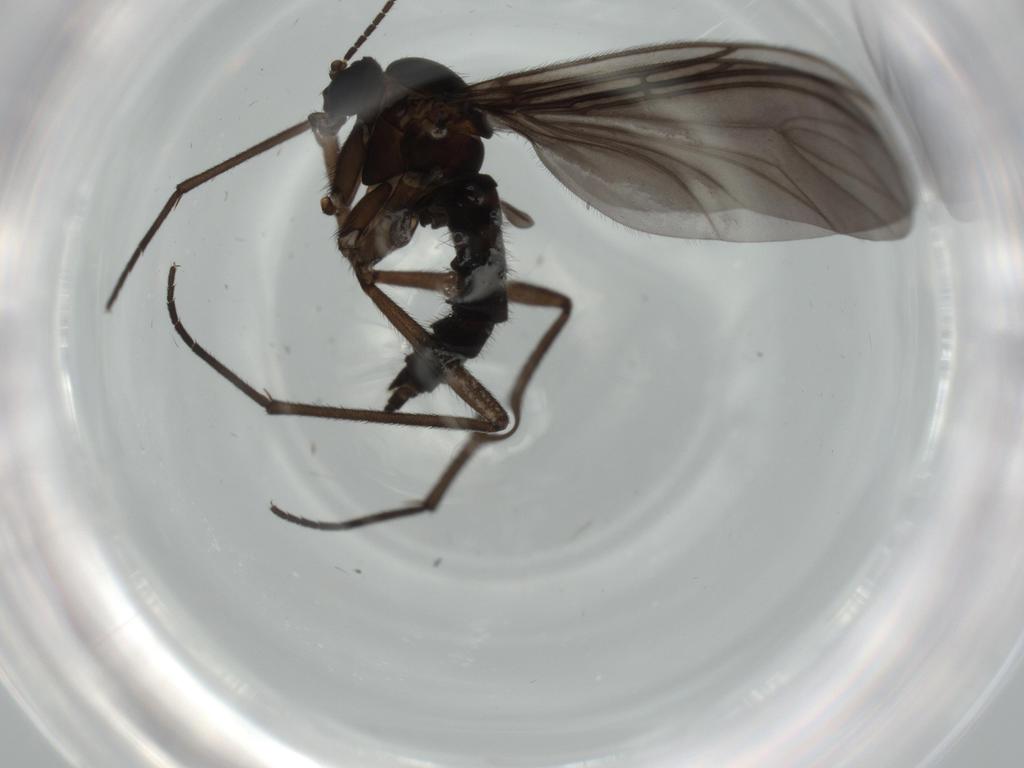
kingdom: Animalia
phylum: Arthropoda
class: Insecta
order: Diptera
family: Sciaridae
